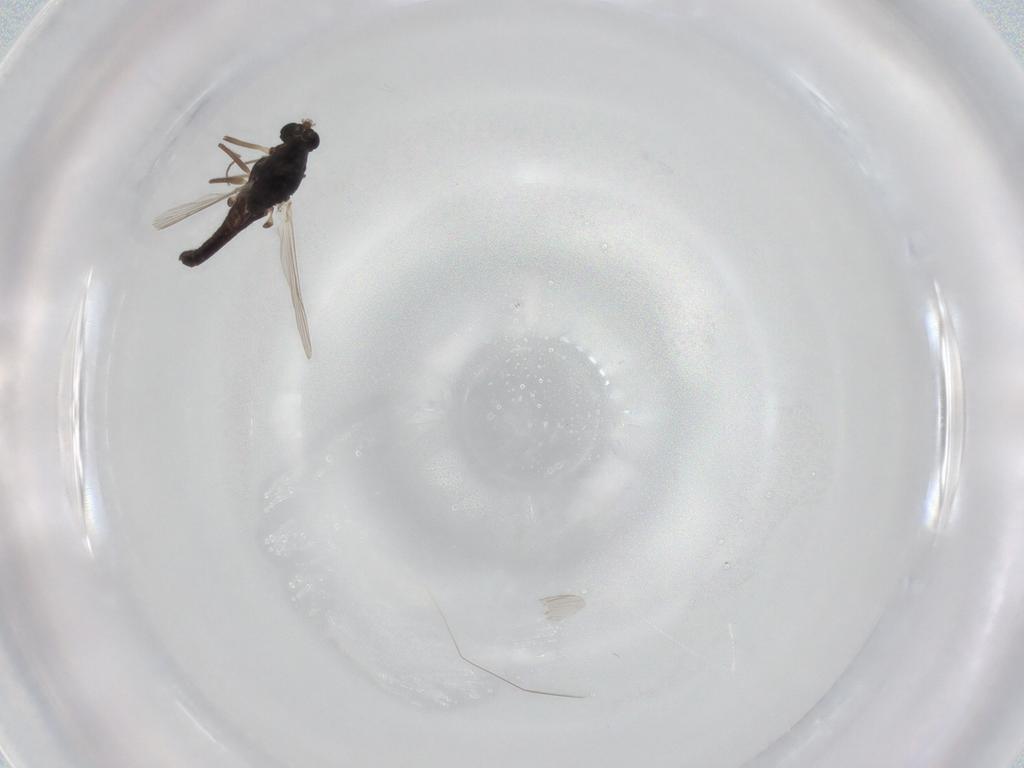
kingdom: Animalia
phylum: Arthropoda
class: Insecta
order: Diptera
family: Chironomidae
